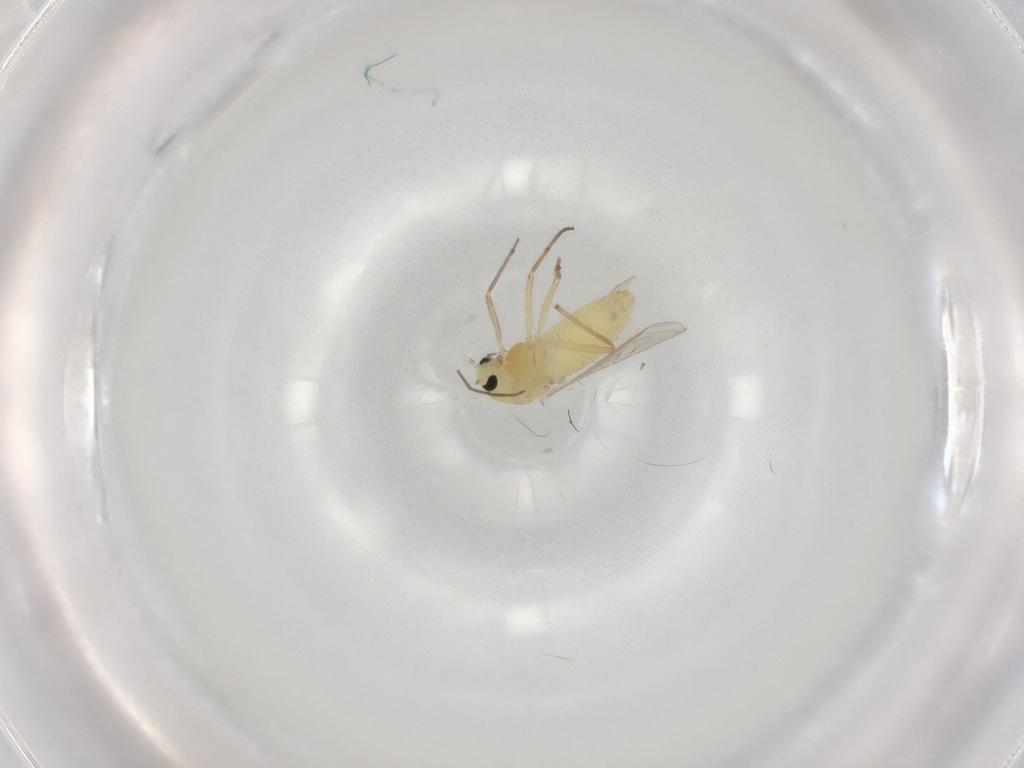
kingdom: Animalia
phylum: Arthropoda
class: Insecta
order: Diptera
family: Chironomidae
